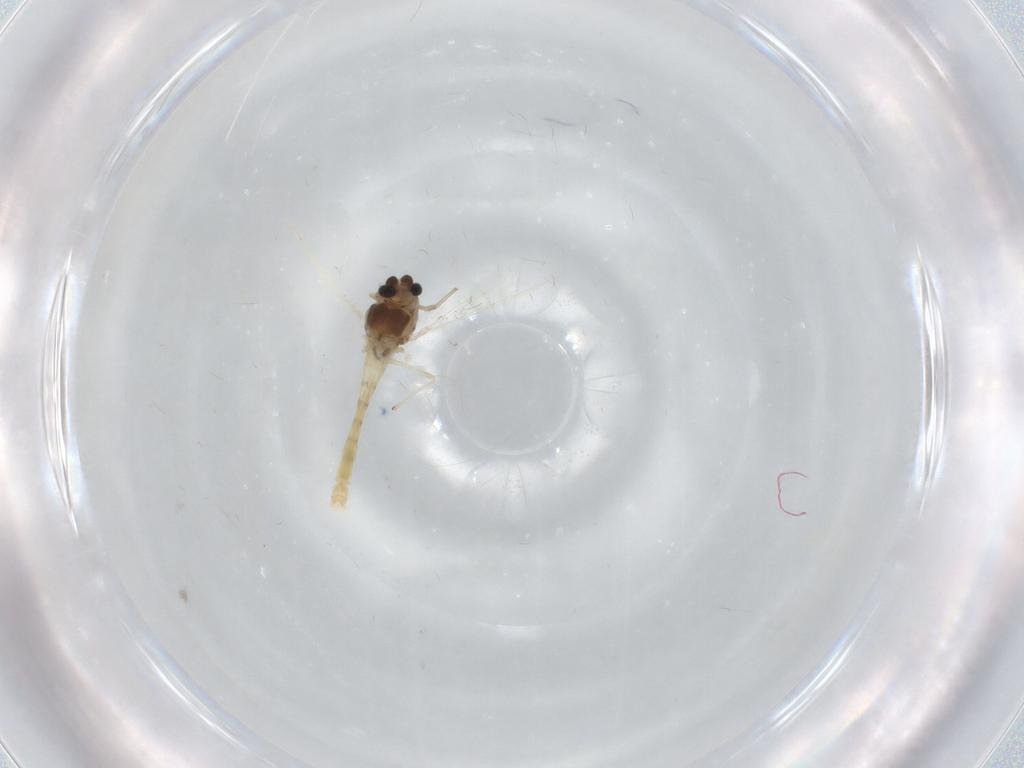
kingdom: Animalia
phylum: Arthropoda
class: Insecta
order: Diptera
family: Chironomidae
